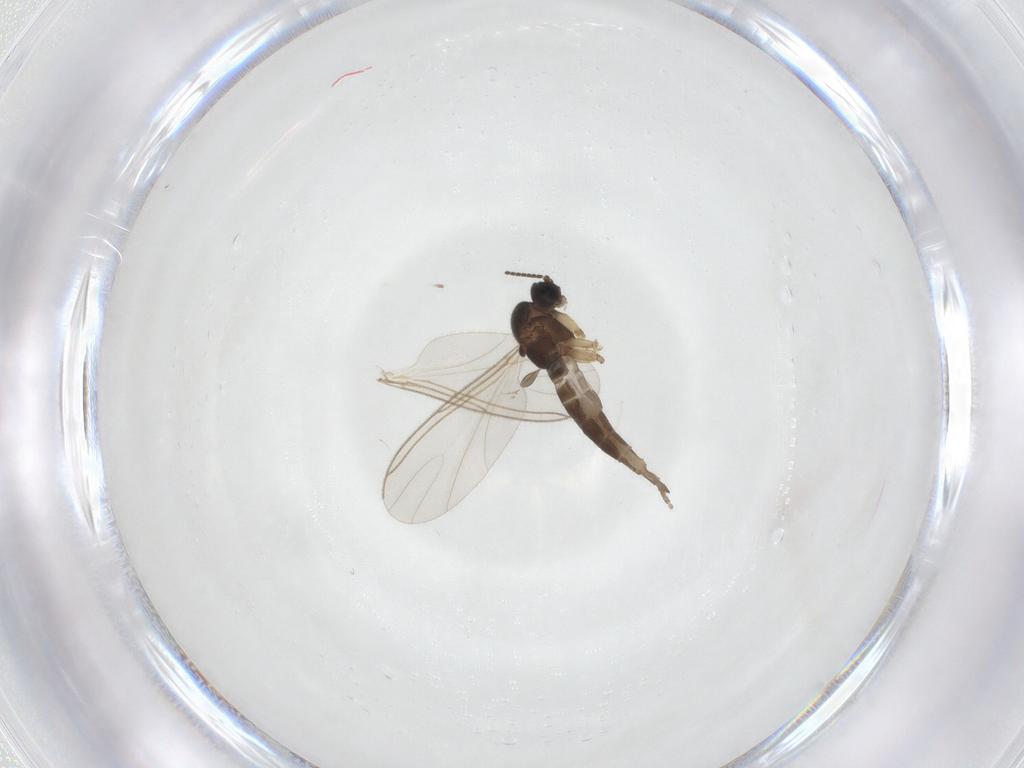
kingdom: Animalia
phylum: Arthropoda
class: Insecta
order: Diptera
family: Sciaridae
